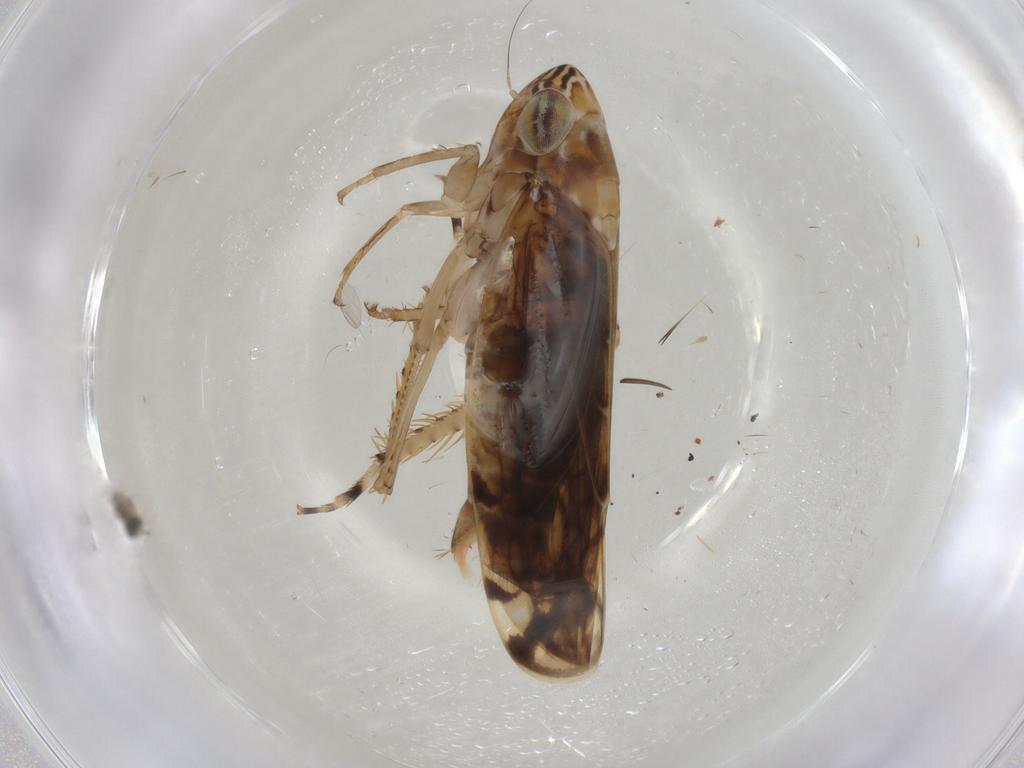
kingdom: Animalia
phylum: Arthropoda
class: Insecta
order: Hemiptera
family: Cicadellidae
